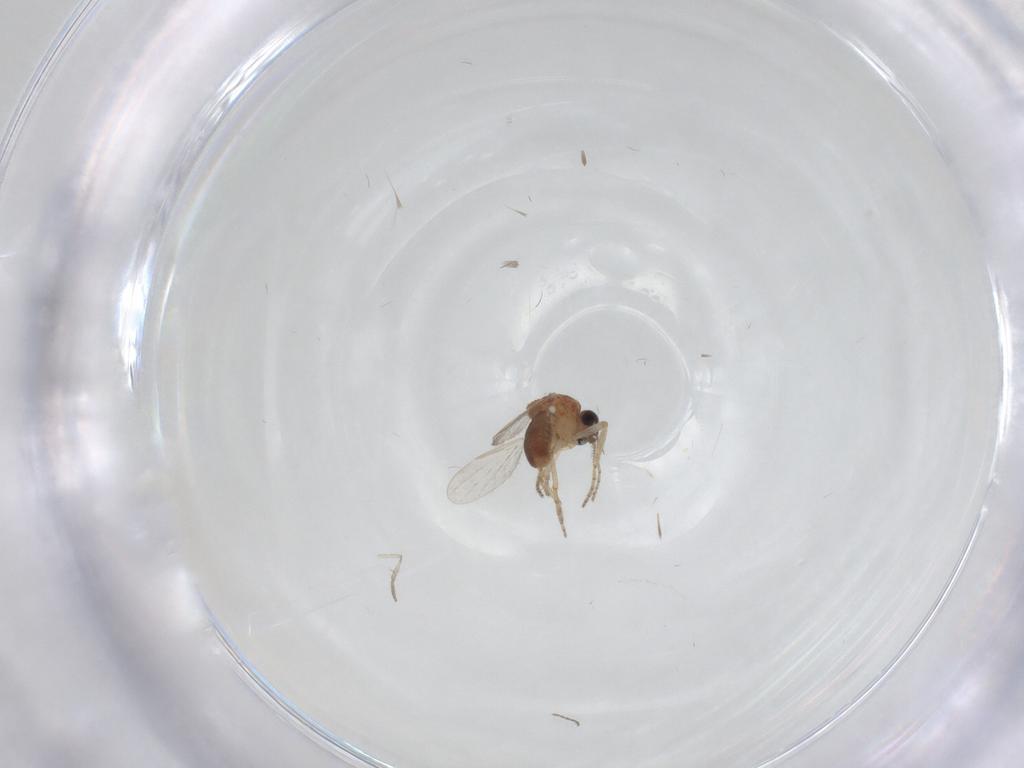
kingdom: Animalia
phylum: Arthropoda
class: Insecta
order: Diptera
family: Ceratopogonidae
